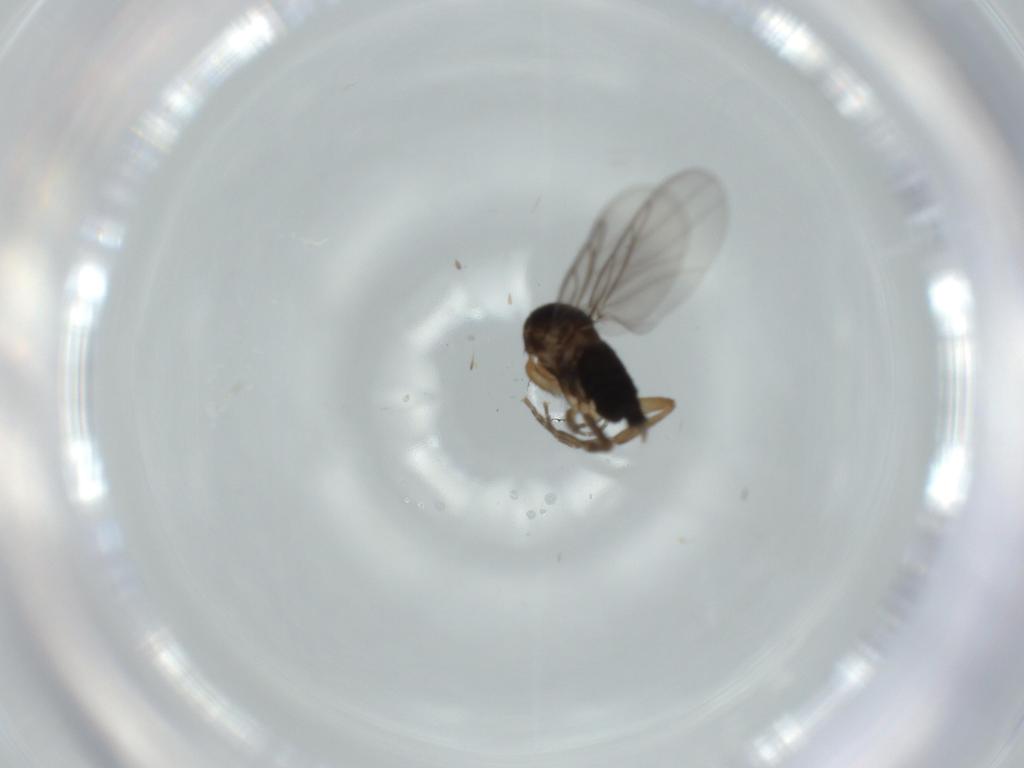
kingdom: Animalia
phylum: Arthropoda
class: Insecta
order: Diptera
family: Phoridae
